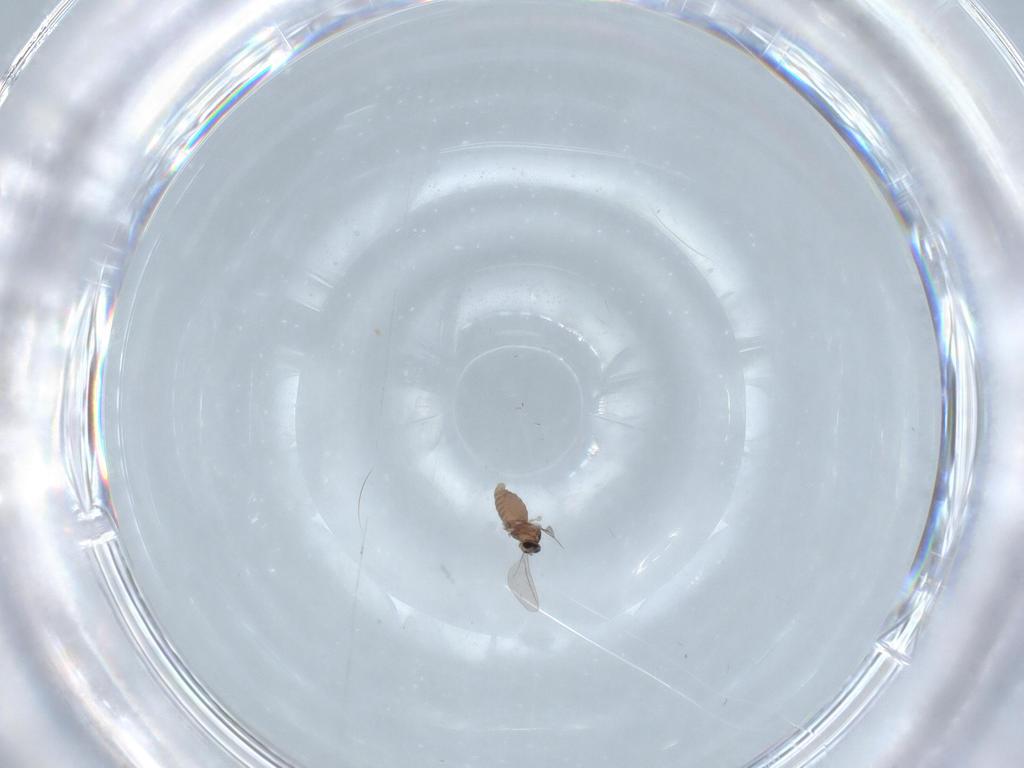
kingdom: Animalia
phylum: Arthropoda
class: Insecta
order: Diptera
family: Cecidomyiidae
